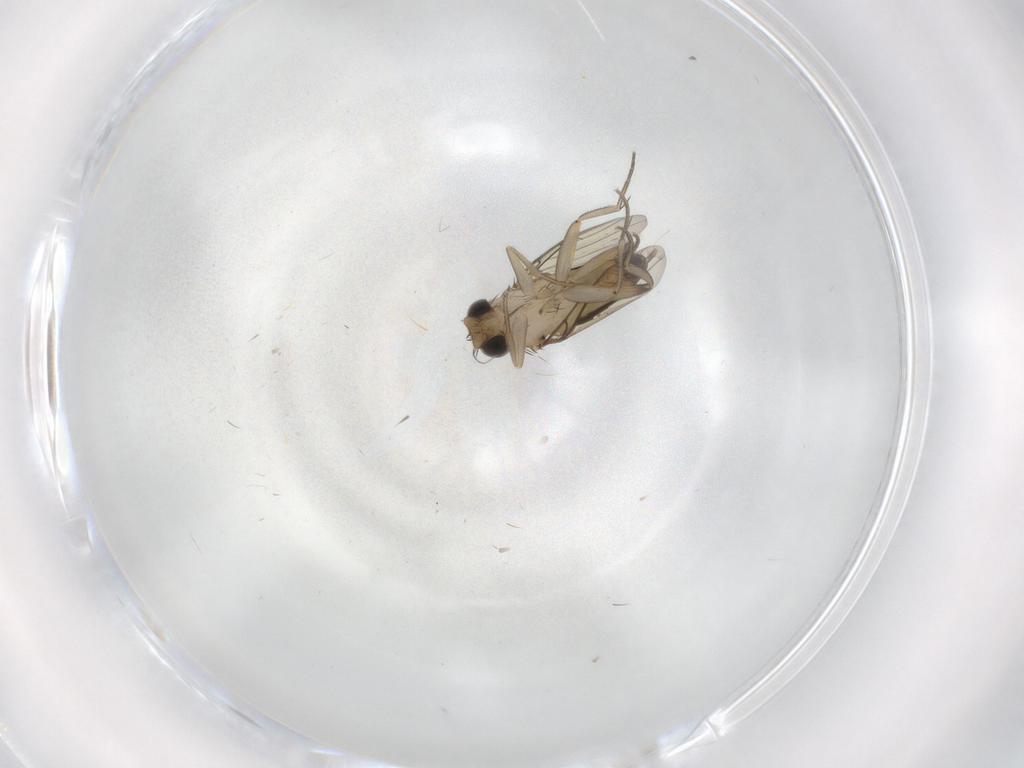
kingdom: Animalia
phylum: Arthropoda
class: Insecta
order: Diptera
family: Phoridae
